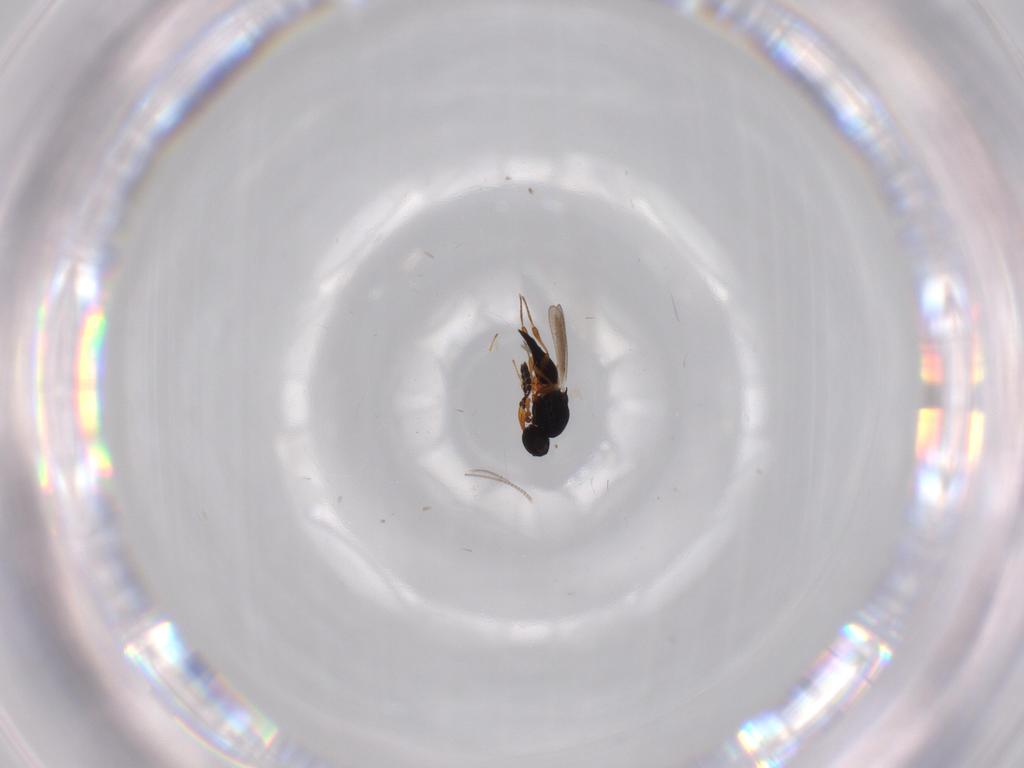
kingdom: Animalia
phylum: Arthropoda
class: Insecta
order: Hymenoptera
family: Platygastridae
